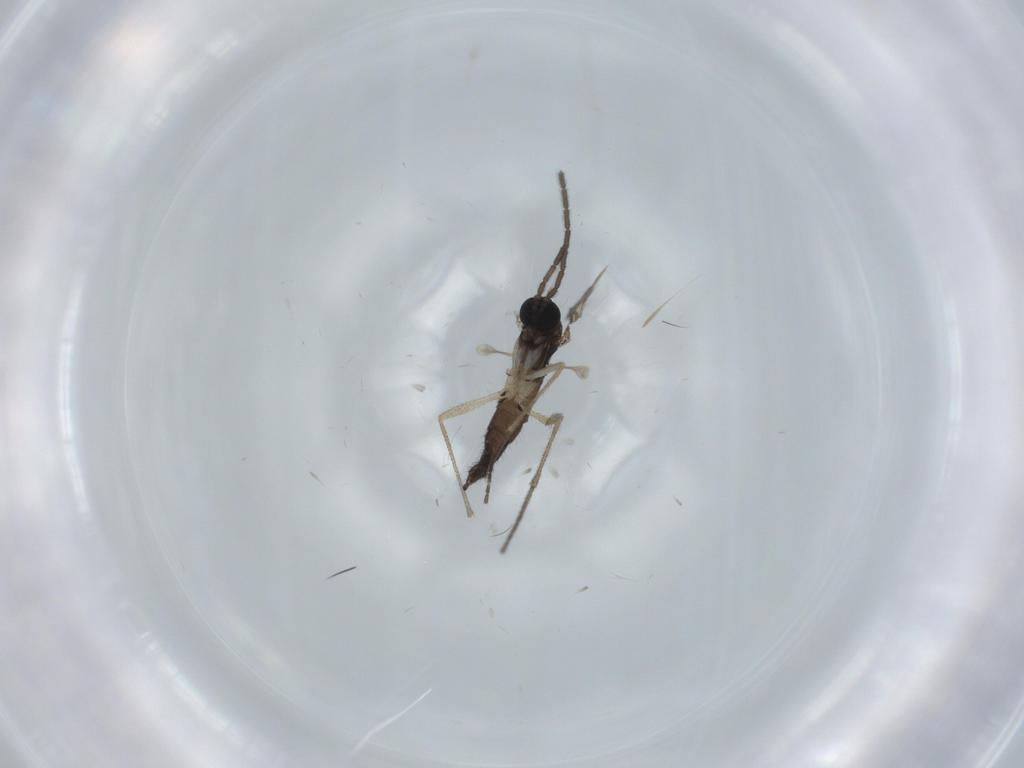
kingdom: Animalia
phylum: Arthropoda
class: Insecta
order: Diptera
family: Sciaridae
